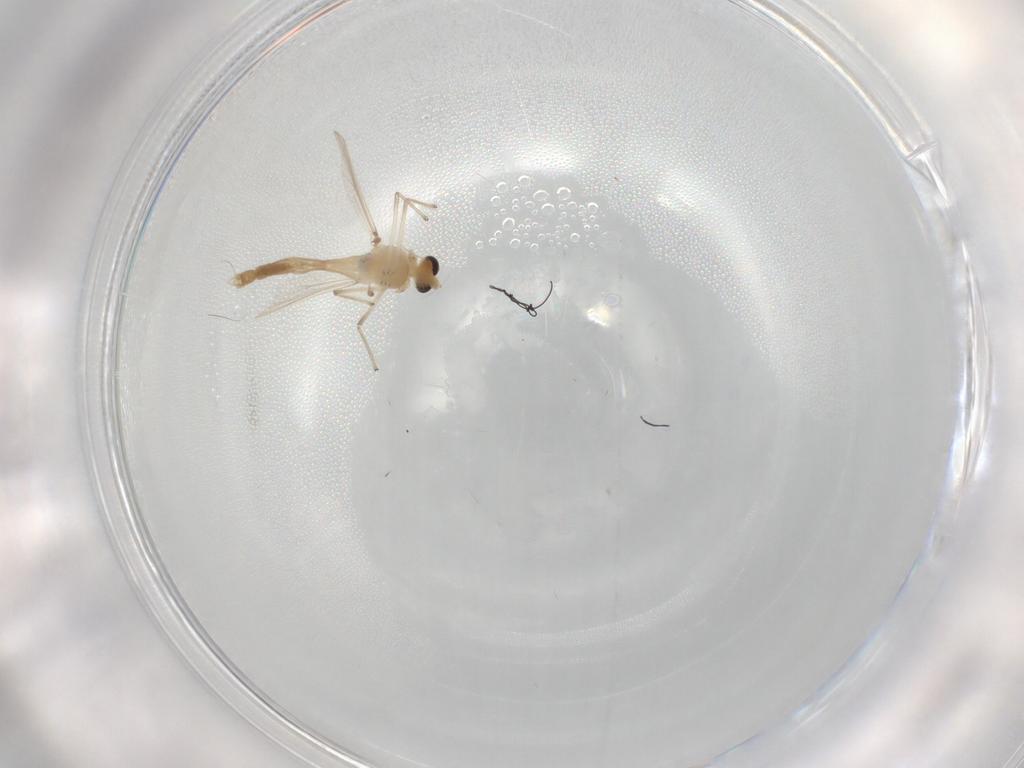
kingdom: Animalia
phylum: Arthropoda
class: Insecta
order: Diptera
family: Chironomidae
